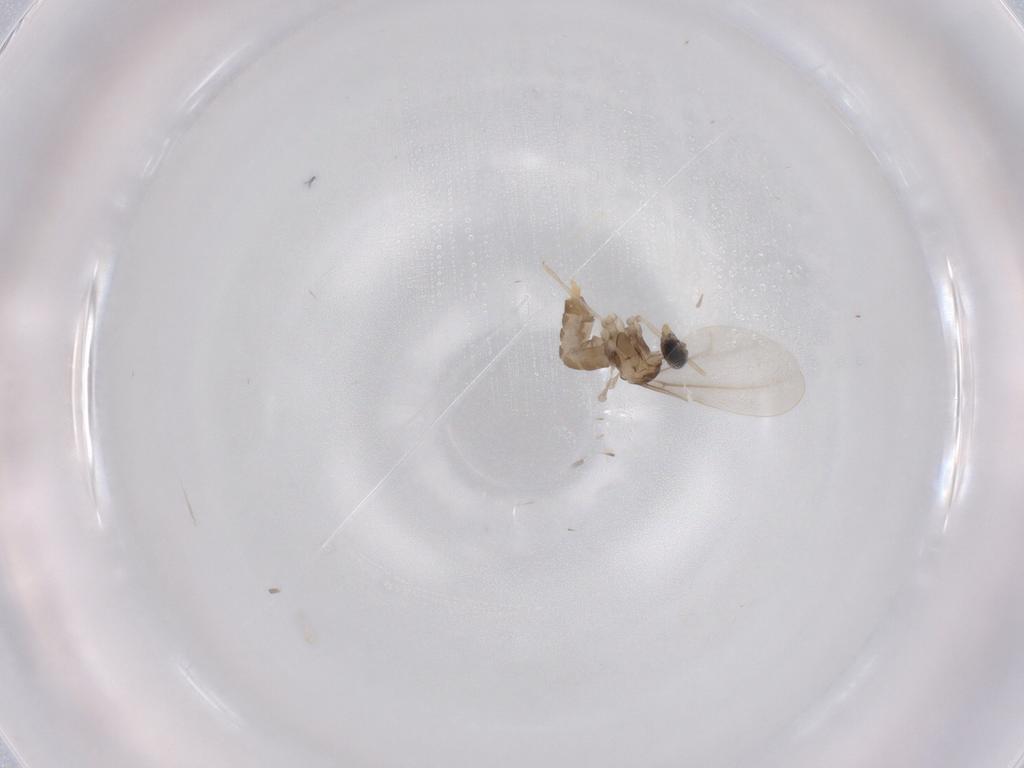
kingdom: Animalia
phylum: Arthropoda
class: Insecta
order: Diptera
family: Cecidomyiidae
